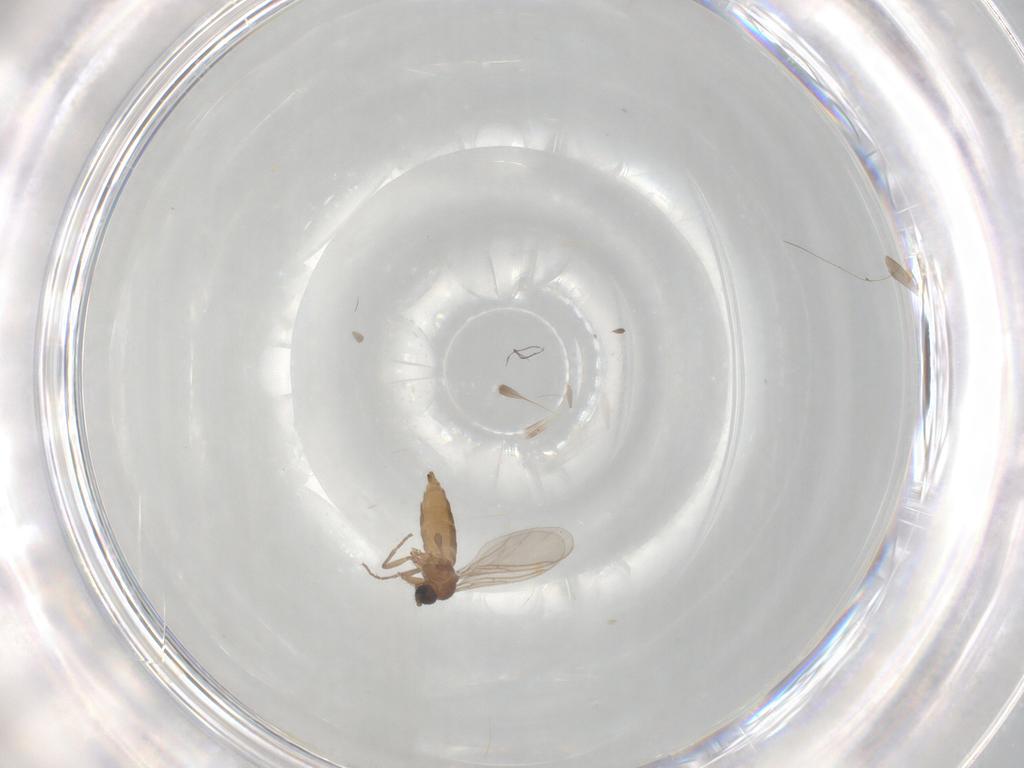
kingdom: Animalia
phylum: Arthropoda
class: Insecta
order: Diptera
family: Sciaridae
